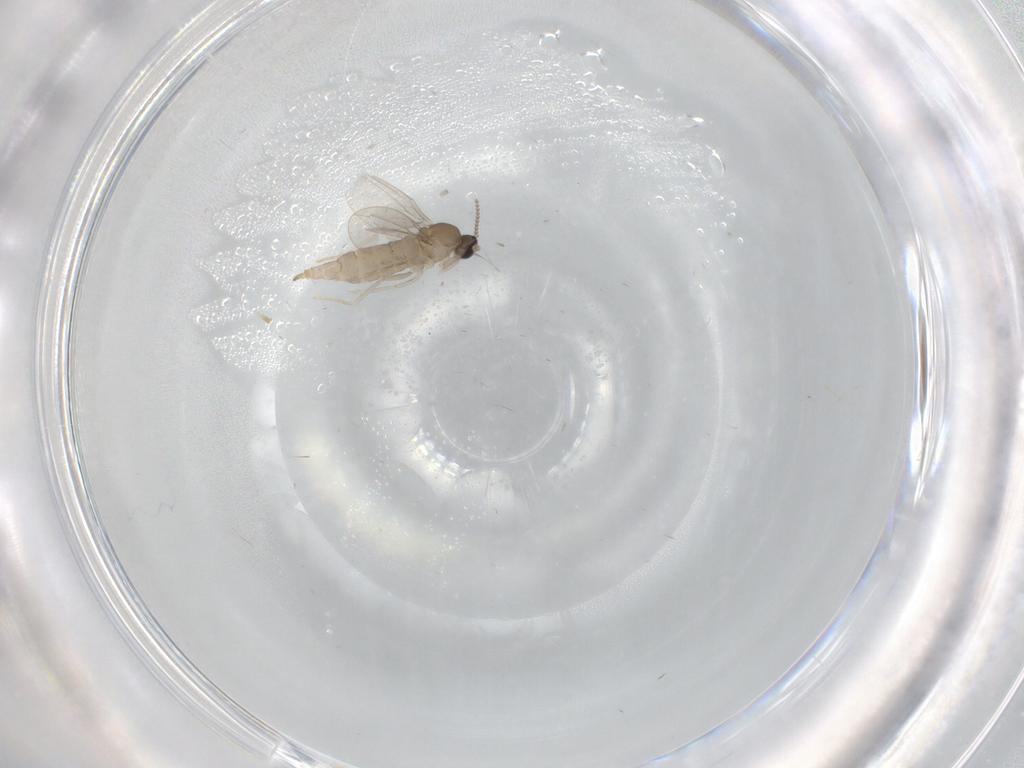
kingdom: Animalia
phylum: Arthropoda
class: Insecta
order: Diptera
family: Cecidomyiidae
